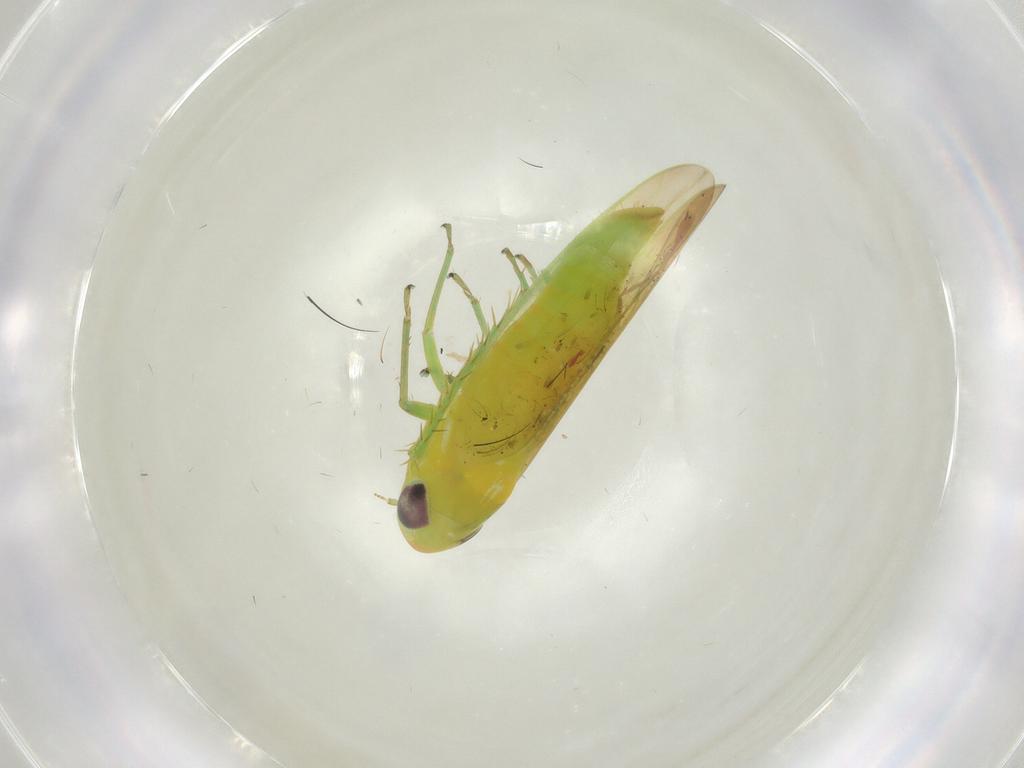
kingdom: Animalia
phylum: Arthropoda
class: Insecta
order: Hemiptera
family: Cicadellidae
